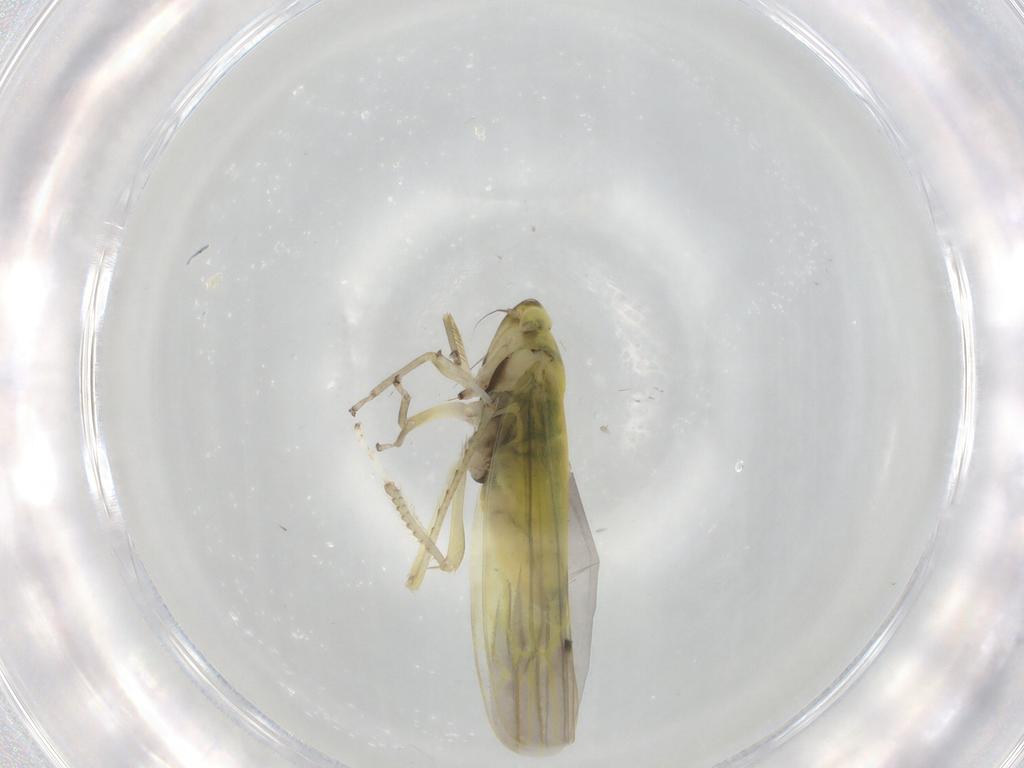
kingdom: Animalia
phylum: Arthropoda
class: Insecta
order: Hemiptera
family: Cicadellidae
